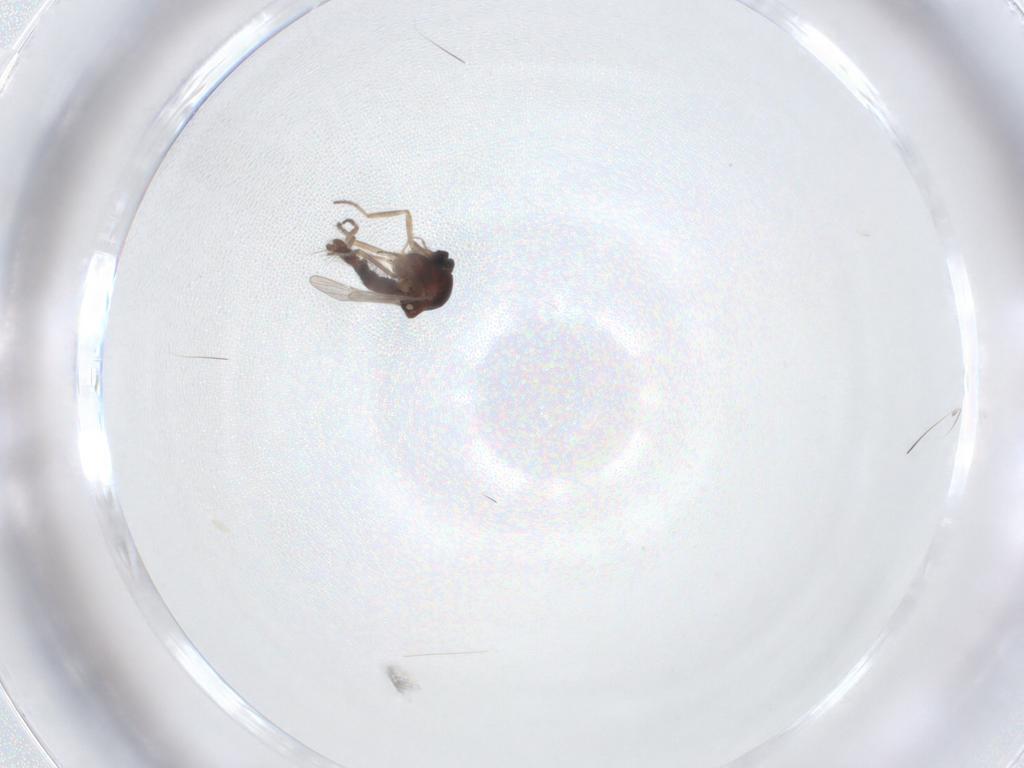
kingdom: Animalia
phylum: Arthropoda
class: Insecta
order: Diptera
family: Ceratopogonidae
